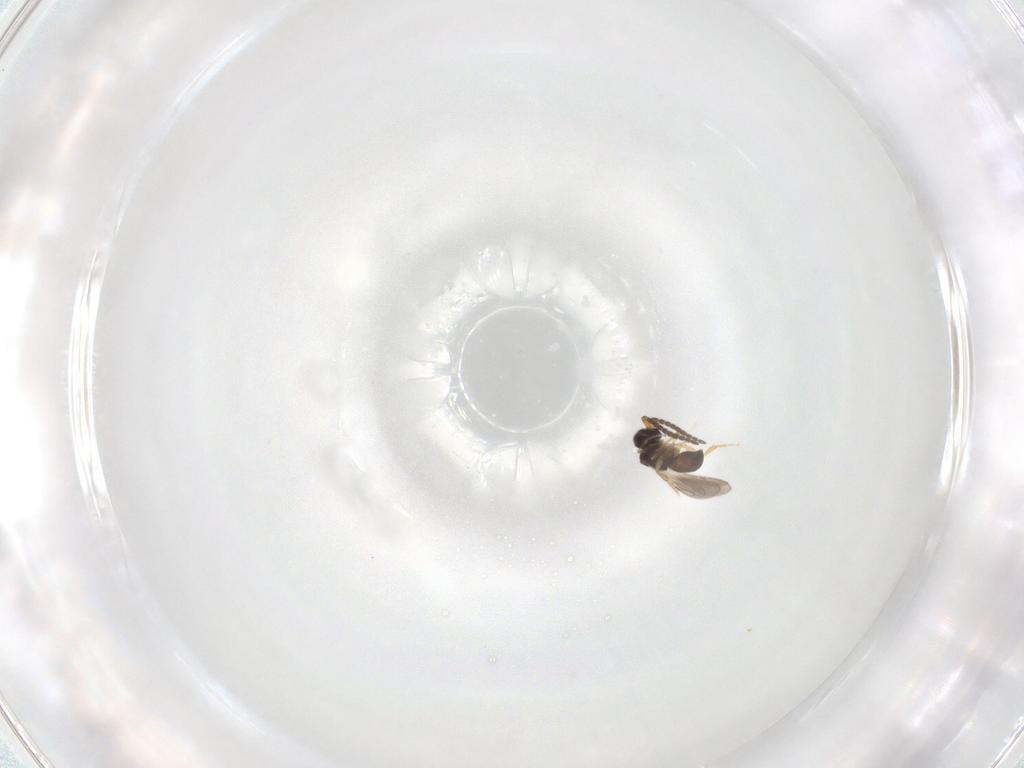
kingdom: Animalia
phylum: Arthropoda
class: Insecta
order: Hymenoptera
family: Ceraphronidae
